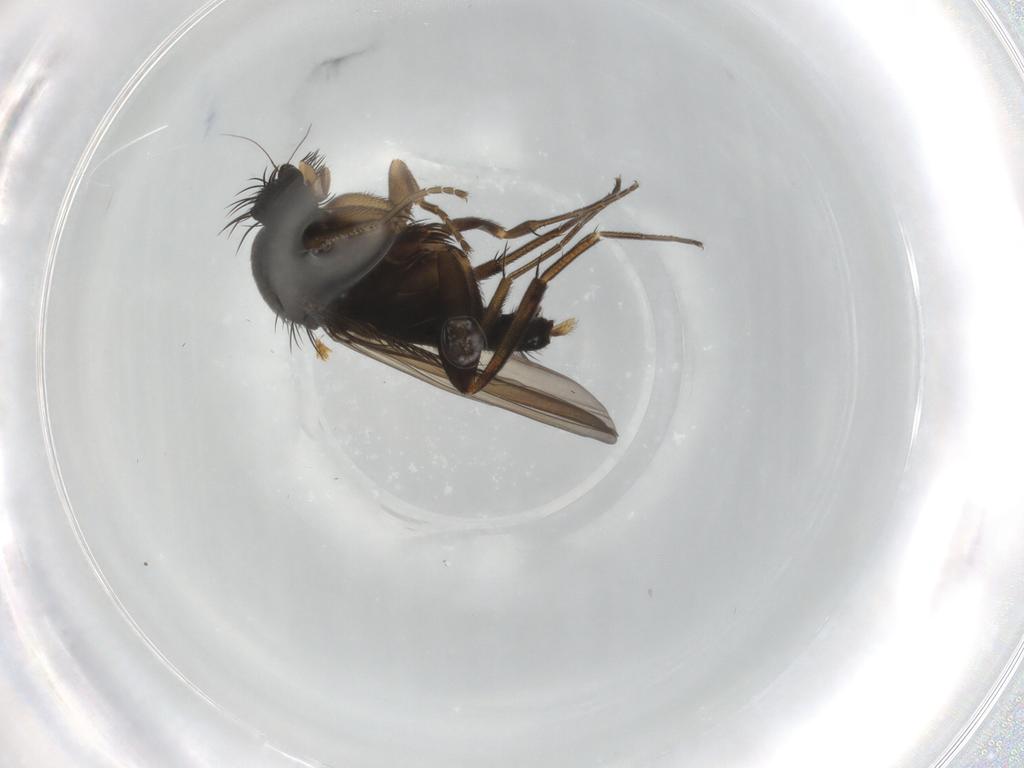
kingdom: Animalia
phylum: Arthropoda
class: Insecta
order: Diptera
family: Phoridae
